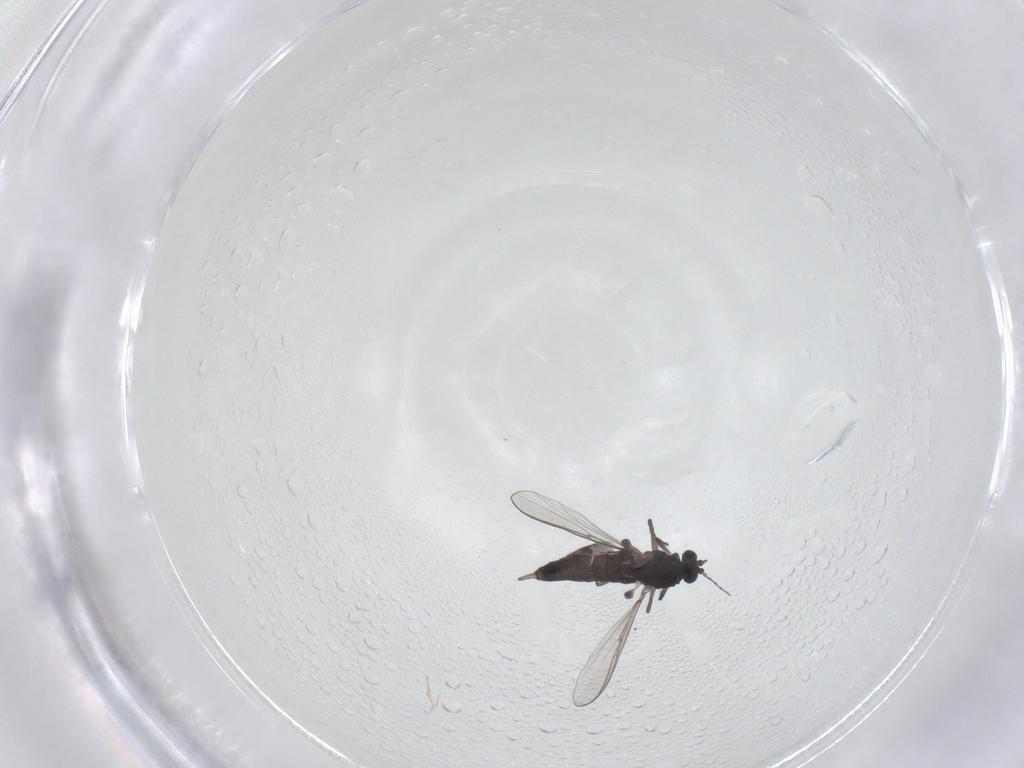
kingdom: Animalia
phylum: Arthropoda
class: Insecta
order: Diptera
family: Chironomidae
